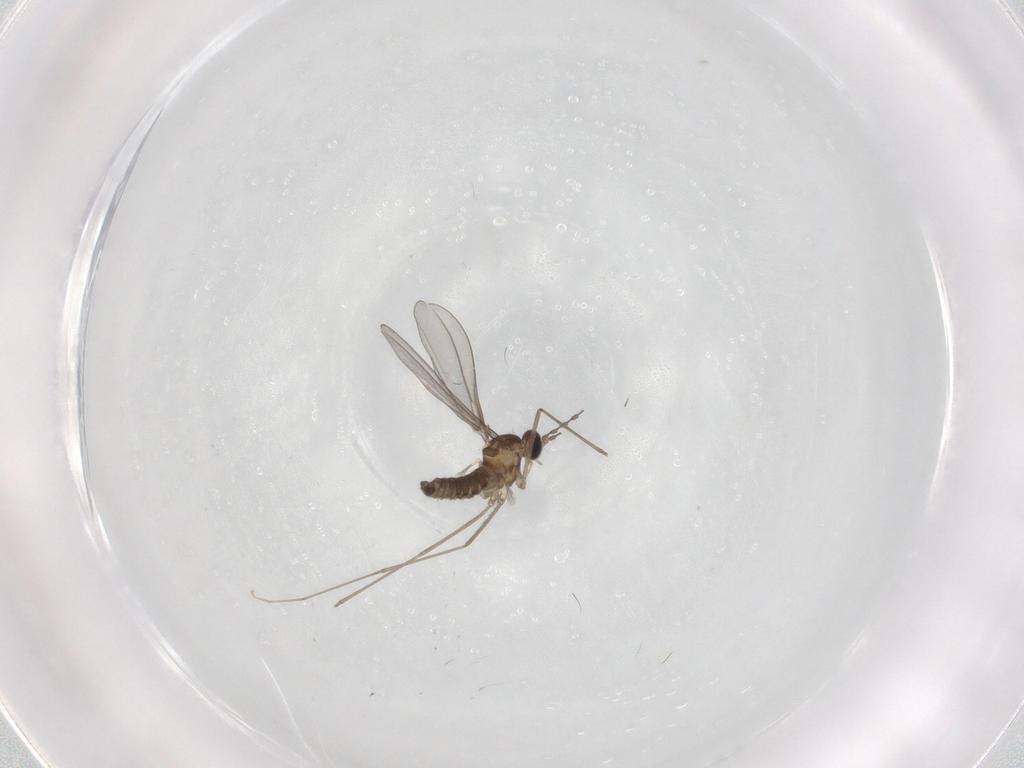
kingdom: Animalia
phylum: Arthropoda
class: Insecta
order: Diptera
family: Cecidomyiidae
